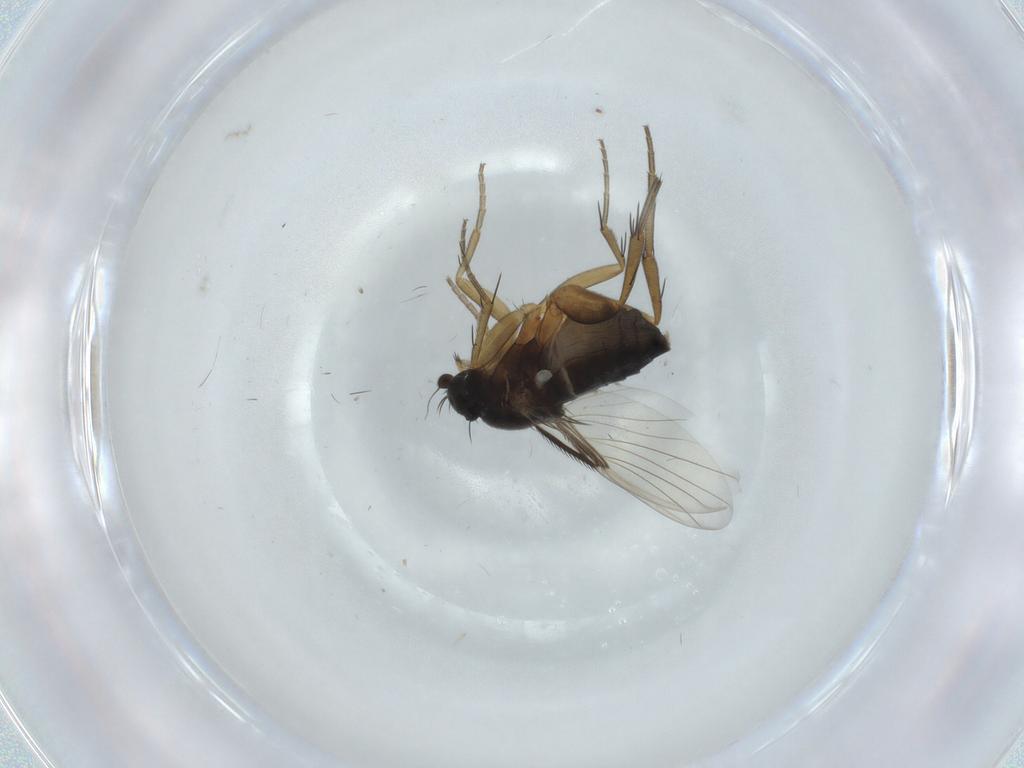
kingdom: Animalia
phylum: Arthropoda
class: Insecta
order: Diptera
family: Phoridae
